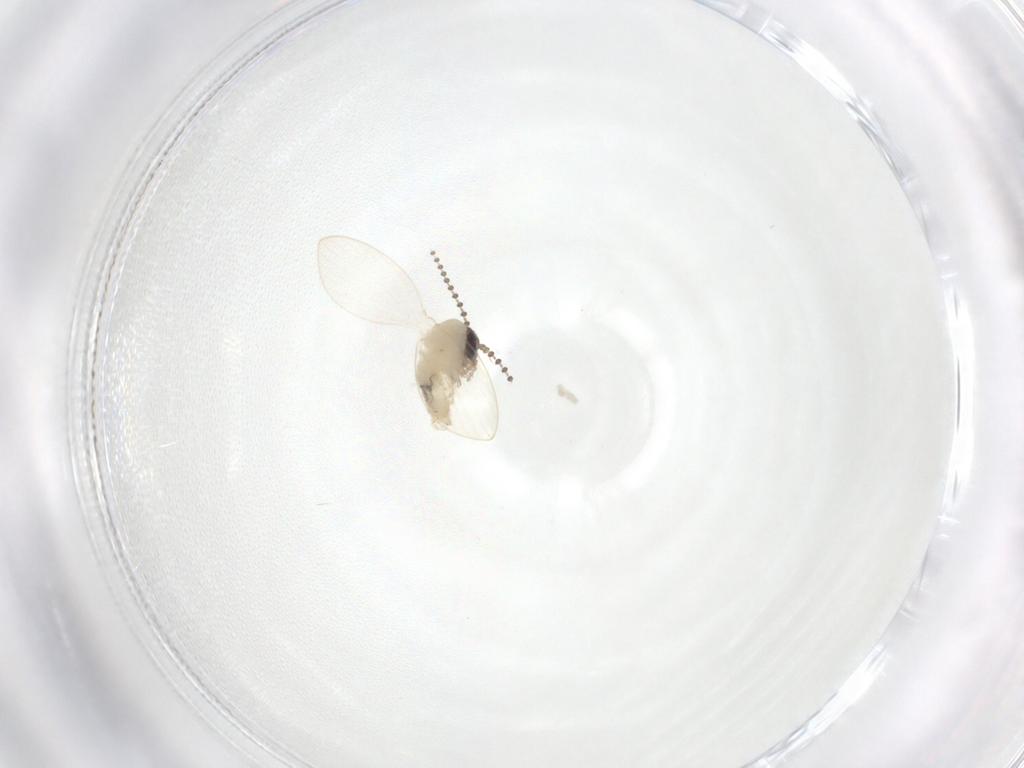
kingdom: Animalia
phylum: Arthropoda
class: Insecta
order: Diptera
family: Psychodidae
